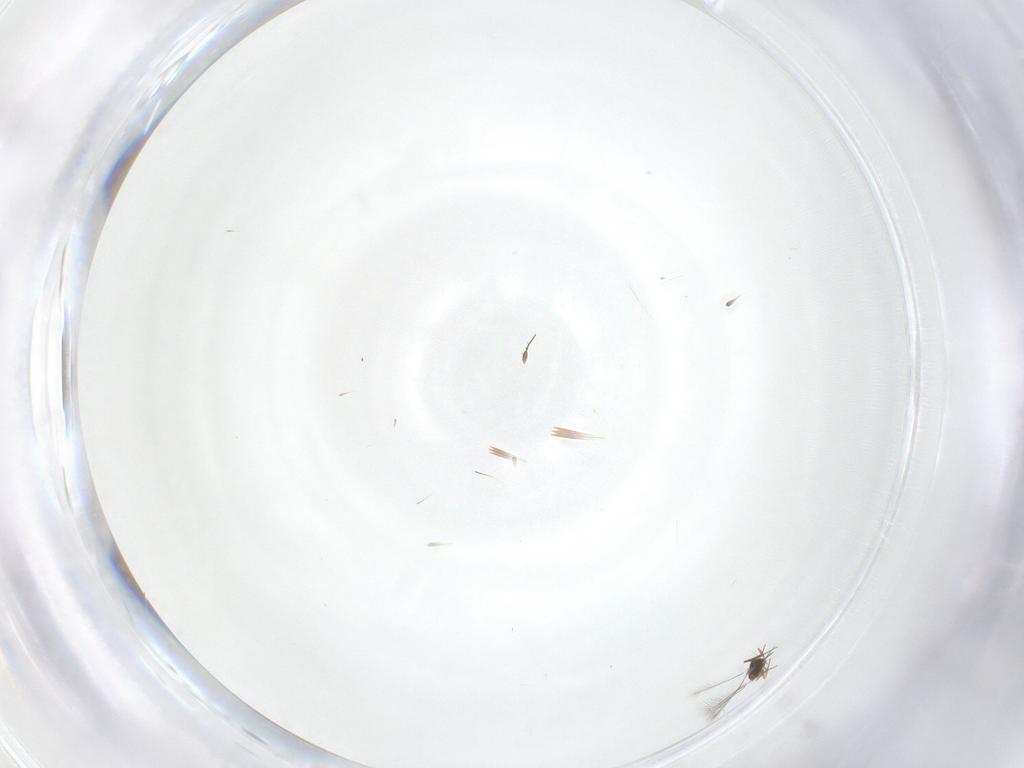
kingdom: Animalia
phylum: Arthropoda
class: Insecta
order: Hymenoptera
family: Mymaridae
